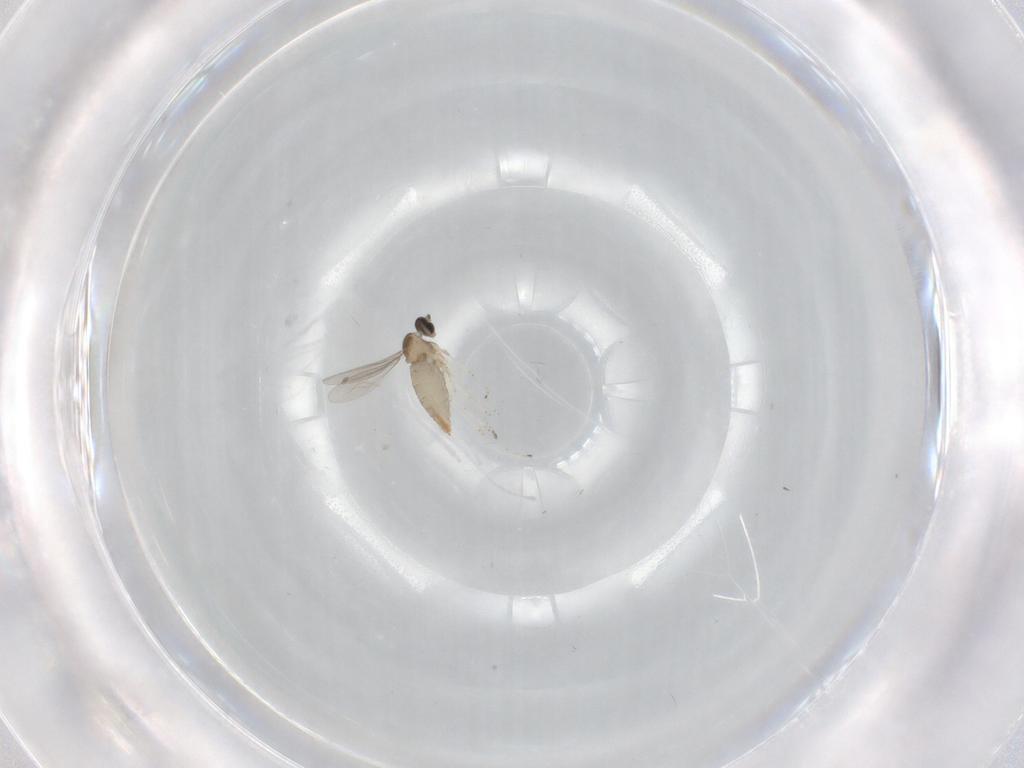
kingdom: Animalia
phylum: Arthropoda
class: Insecta
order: Diptera
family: Cecidomyiidae
